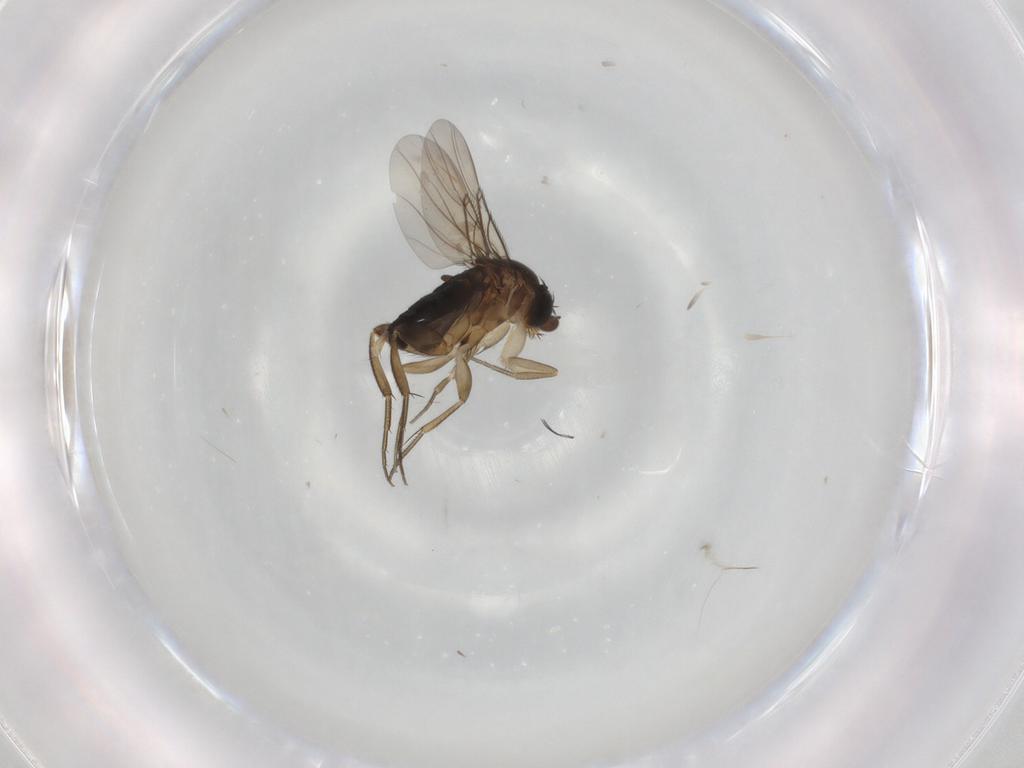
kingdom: Animalia
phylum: Arthropoda
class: Insecta
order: Diptera
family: Phoridae
